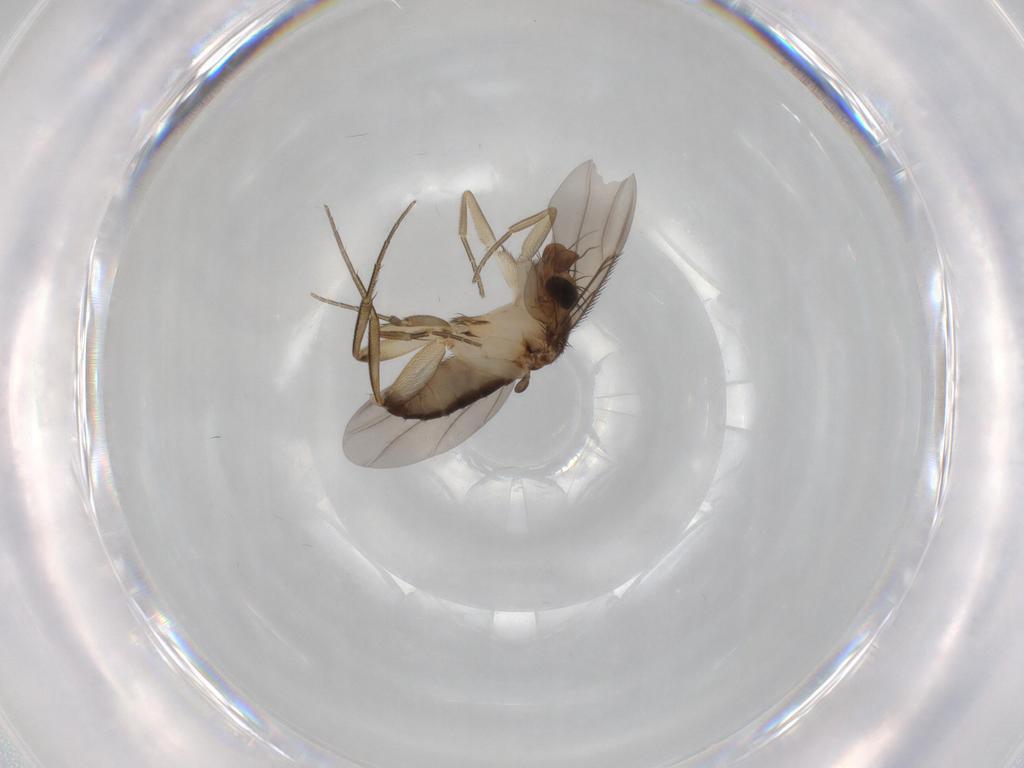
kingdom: Animalia
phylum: Arthropoda
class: Insecta
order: Diptera
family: Phoridae
